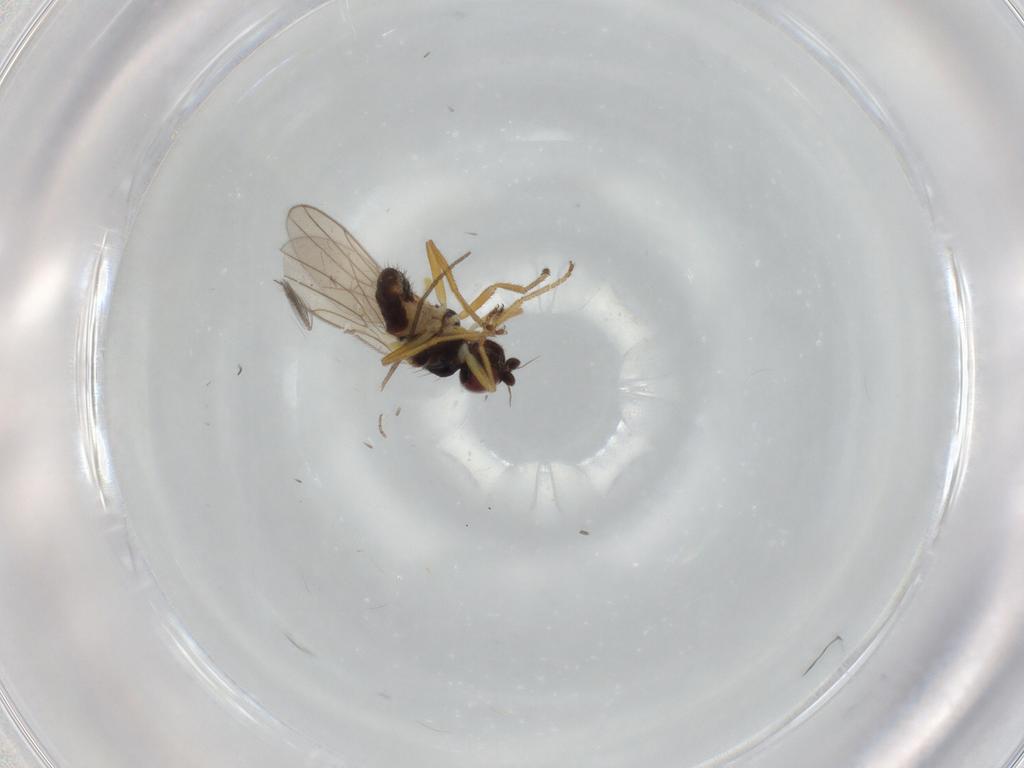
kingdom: Animalia
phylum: Arthropoda
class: Insecta
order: Diptera
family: Chloropidae
